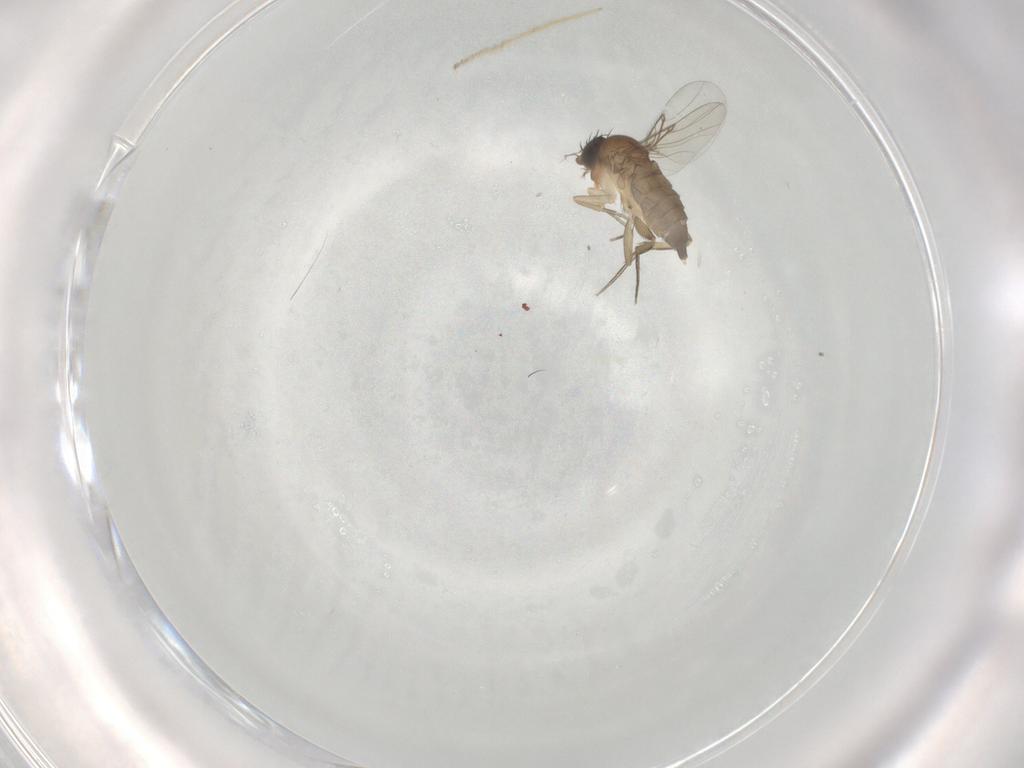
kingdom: Animalia
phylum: Arthropoda
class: Insecta
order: Diptera
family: Phoridae
